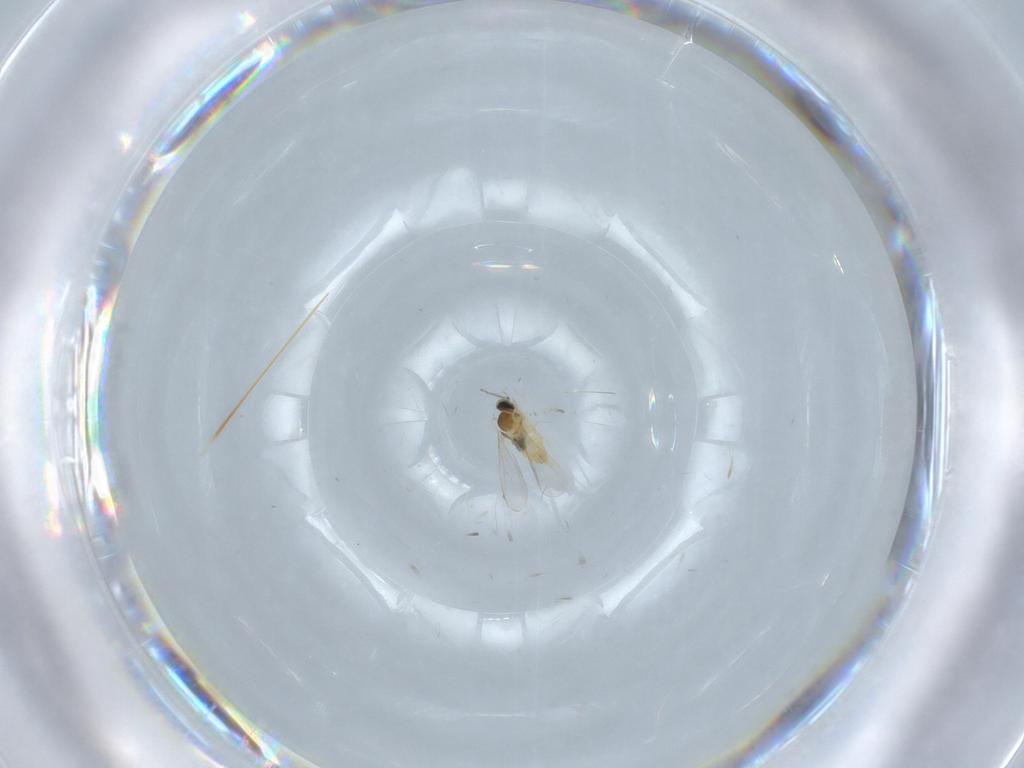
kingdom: Animalia
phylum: Arthropoda
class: Insecta
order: Diptera
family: Cecidomyiidae
